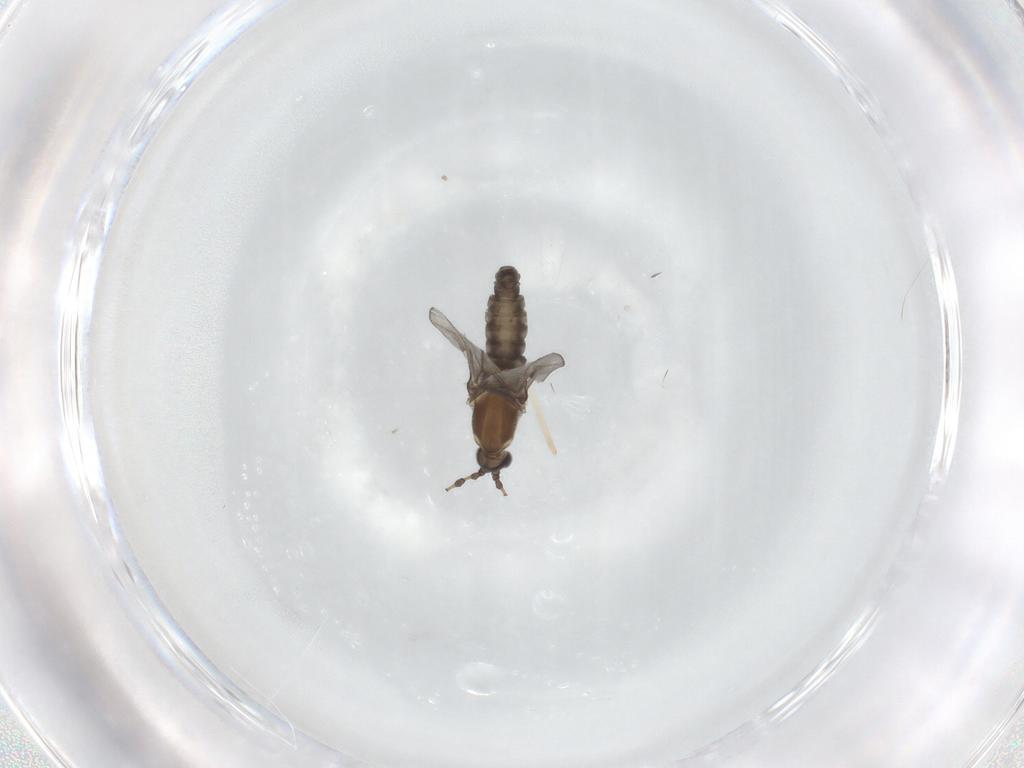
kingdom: Animalia
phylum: Arthropoda
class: Insecta
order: Diptera
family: Cecidomyiidae
